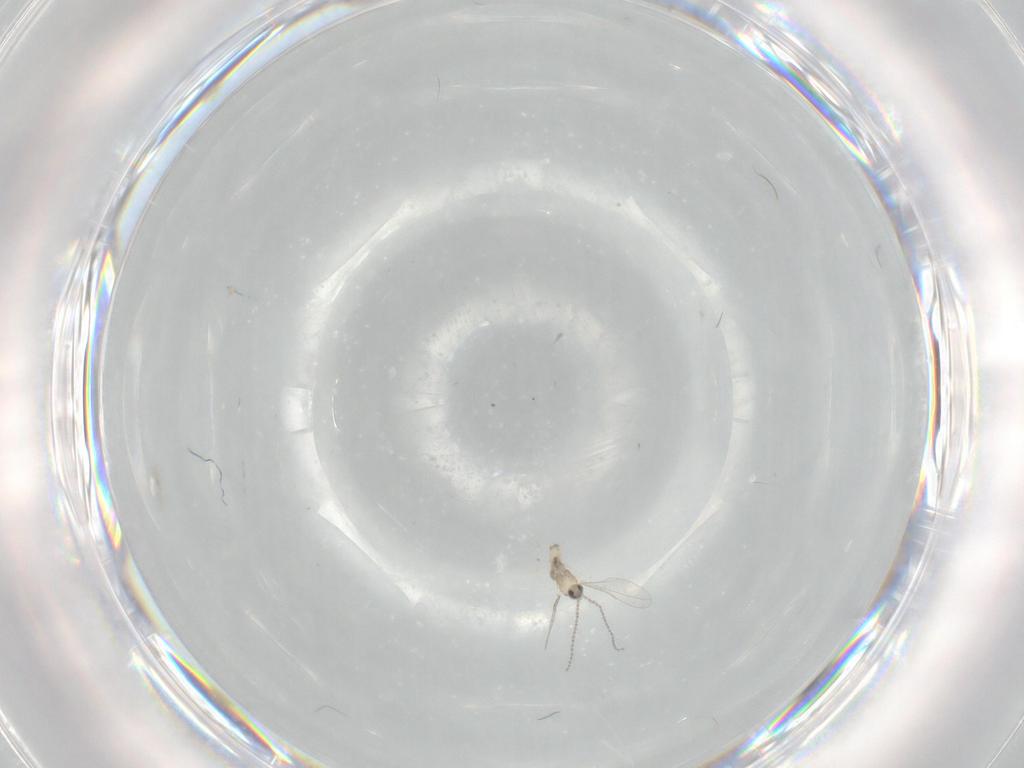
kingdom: Animalia
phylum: Arthropoda
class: Insecta
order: Diptera
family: Cecidomyiidae
